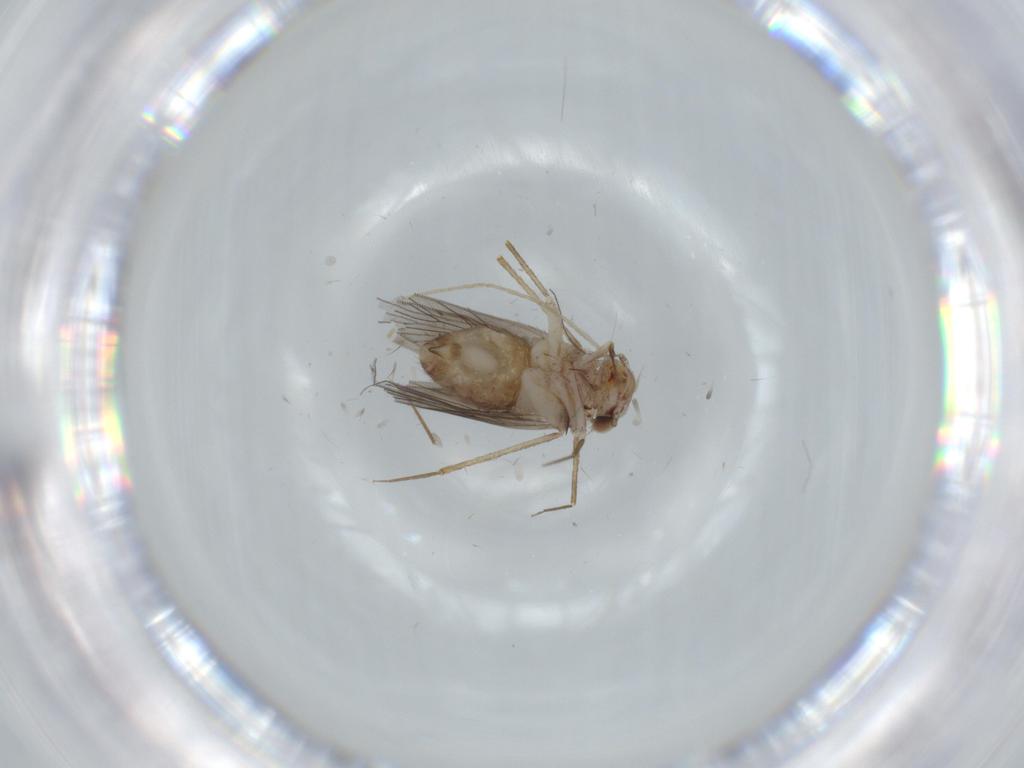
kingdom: Animalia
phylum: Arthropoda
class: Insecta
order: Psocodea
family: Lepidopsocidae
